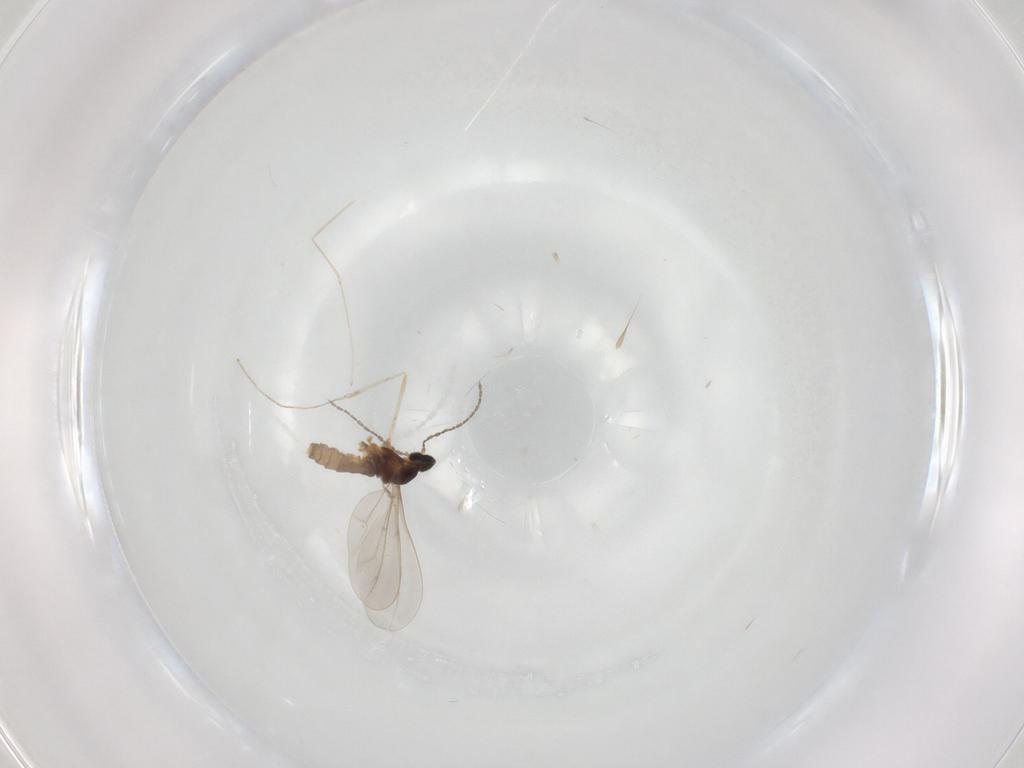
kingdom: Animalia
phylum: Arthropoda
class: Insecta
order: Diptera
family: Cecidomyiidae
